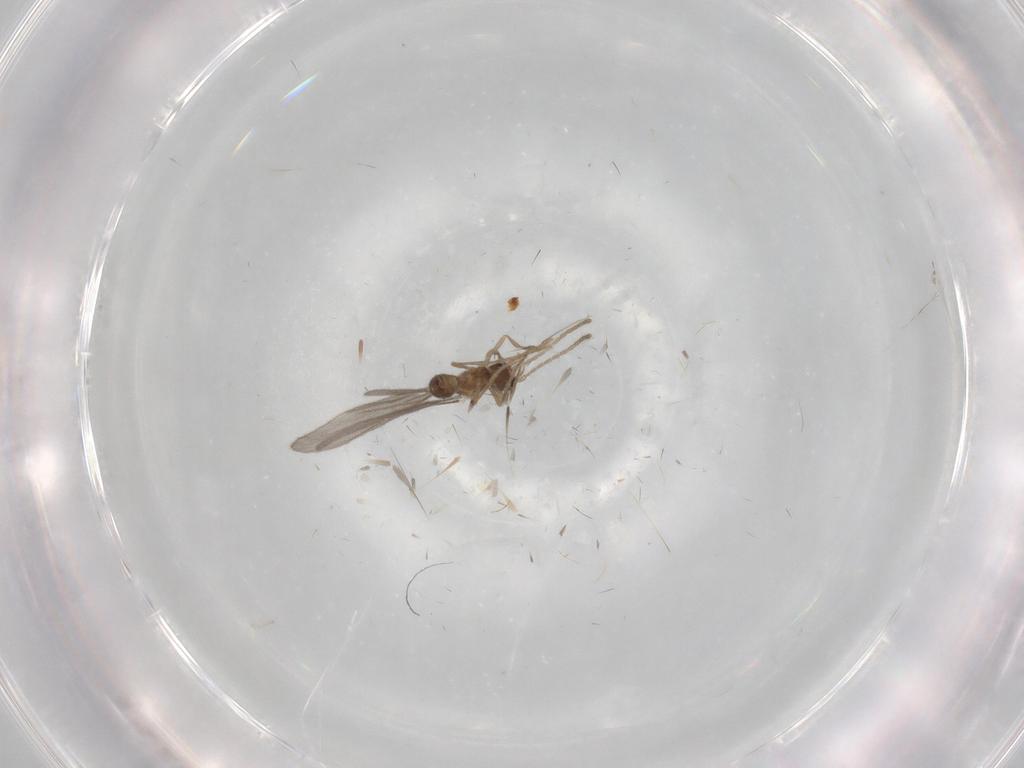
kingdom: Animalia
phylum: Arthropoda
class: Insecta
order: Hymenoptera
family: Formicidae
